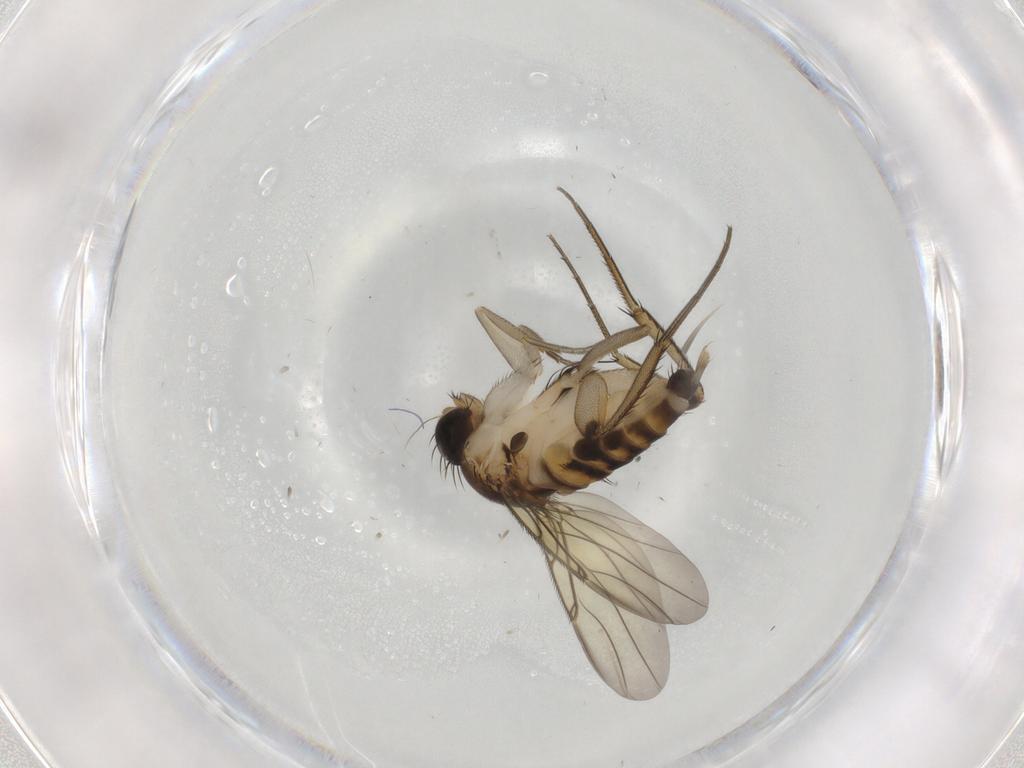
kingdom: Animalia
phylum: Arthropoda
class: Insecta
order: Diptera
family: Phoridae
